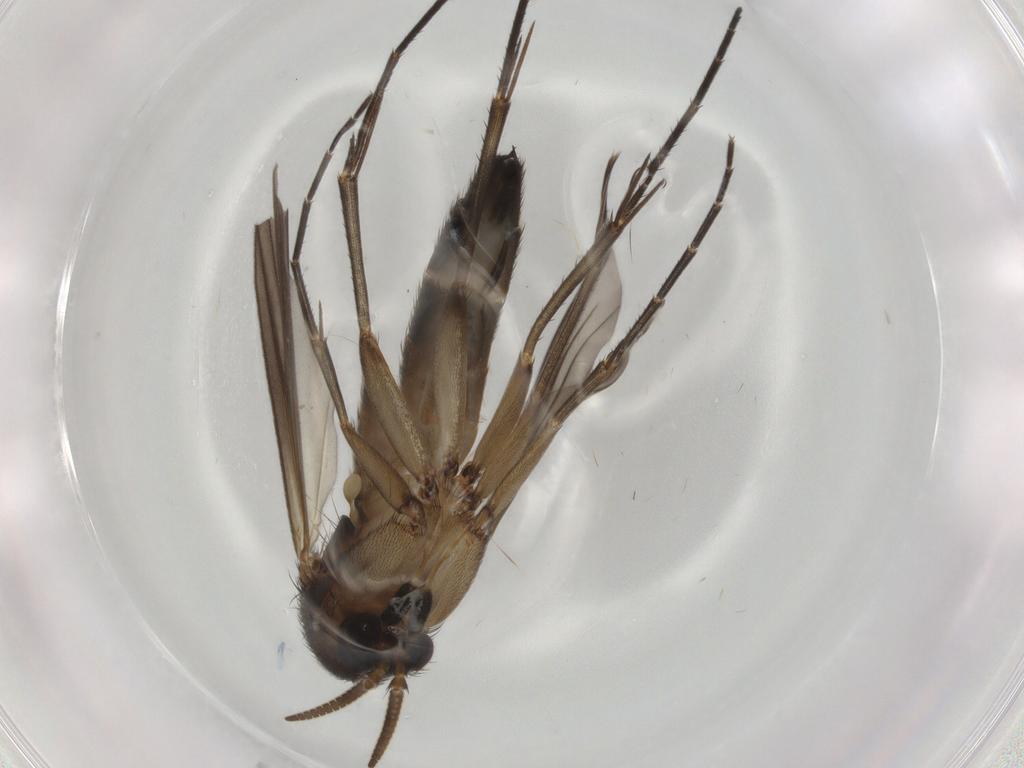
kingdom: Animalia
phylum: Arthropoda
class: Insecta
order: Diptera
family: Mycetophilidae
